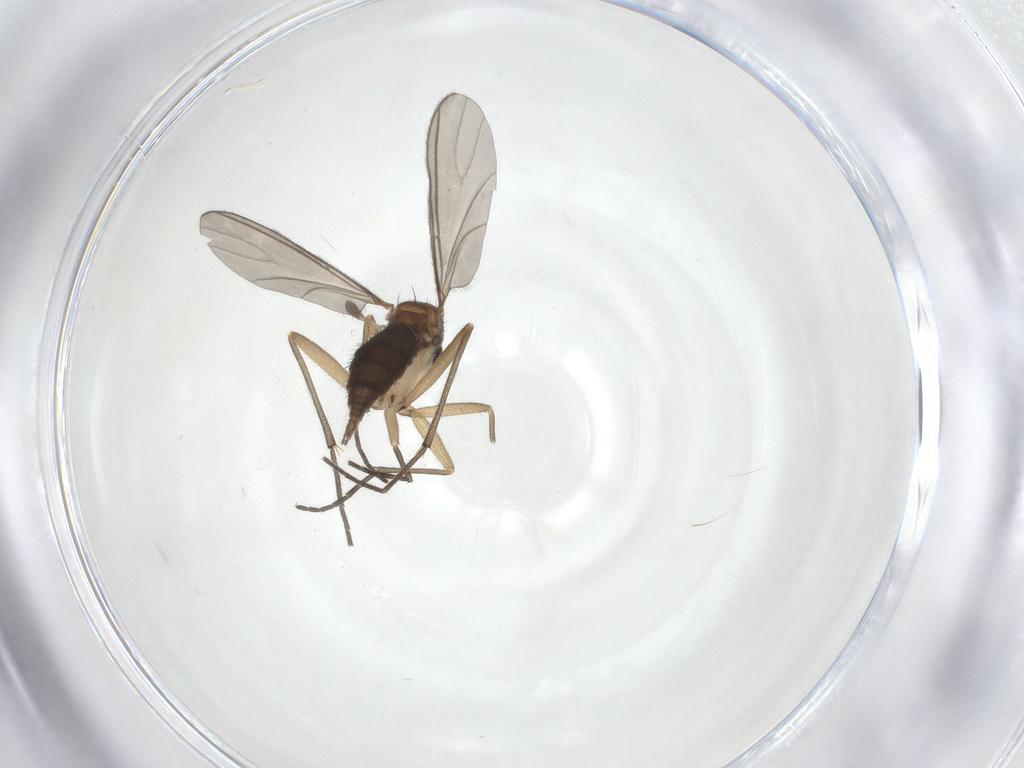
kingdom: Animalia
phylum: Arthropoda
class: Insecta
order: Diptera
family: Sciaridae
